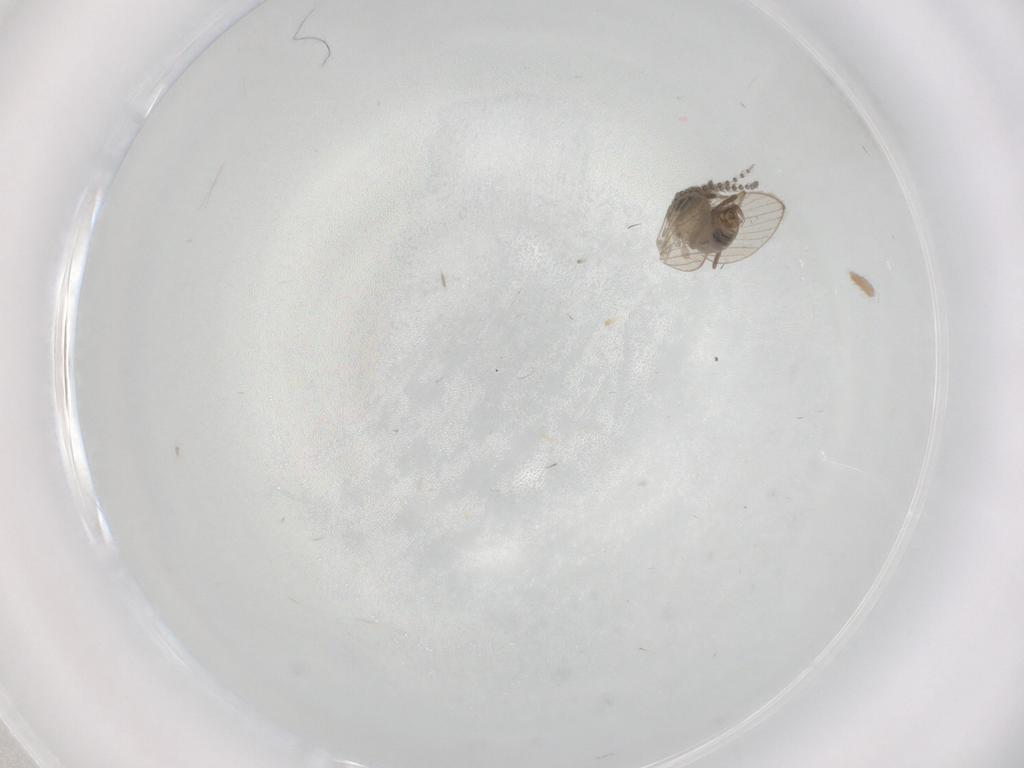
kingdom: Animalia
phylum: Arthropoda
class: Insecta
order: Diptera
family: Psychodidae
